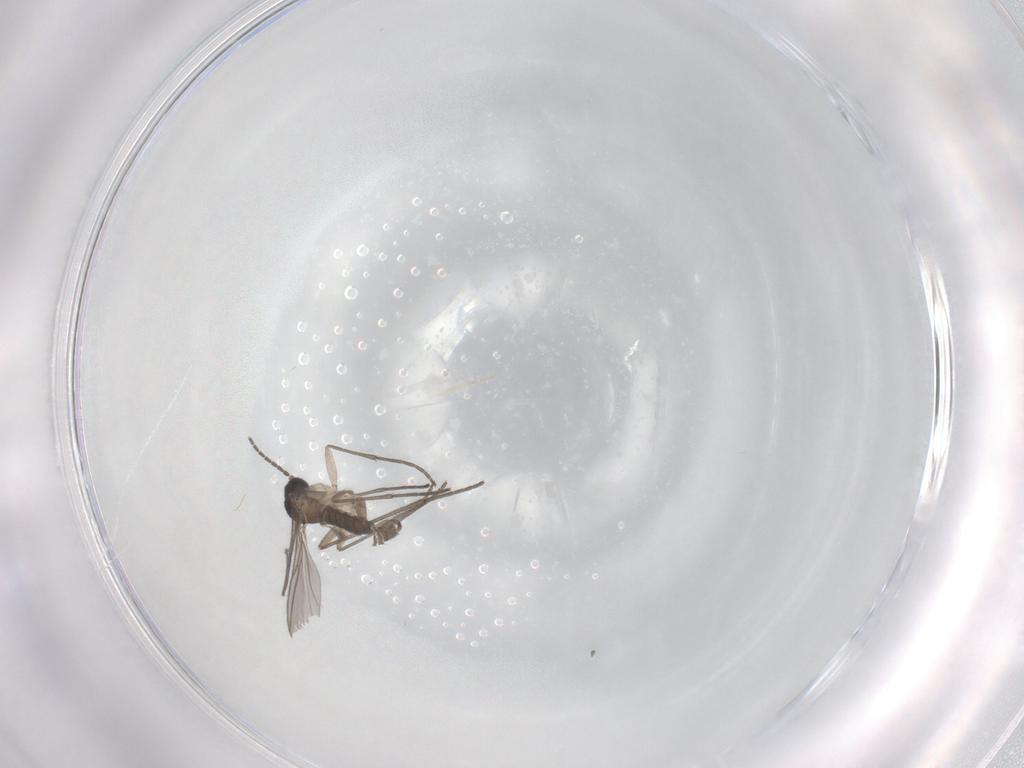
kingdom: Animalia
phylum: Arthropoda
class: Insecta
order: Diptera
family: Sciaridae
